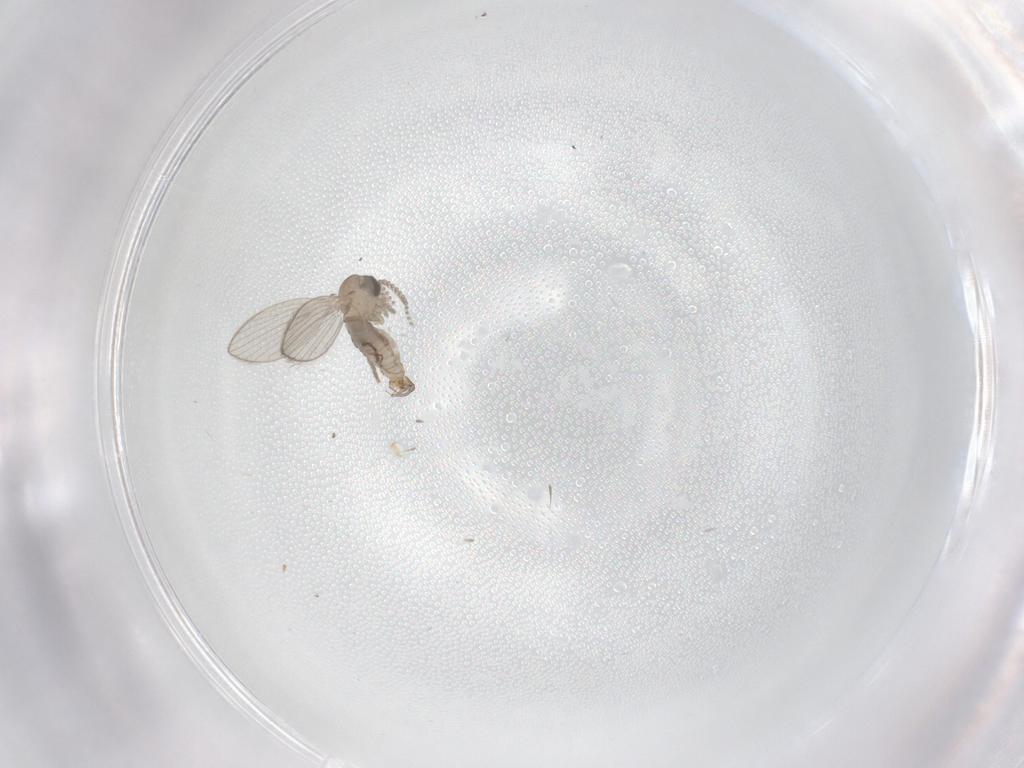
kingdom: Animalia
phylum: Arthropoda
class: Insecta
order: Diptera
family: Psychodidae
